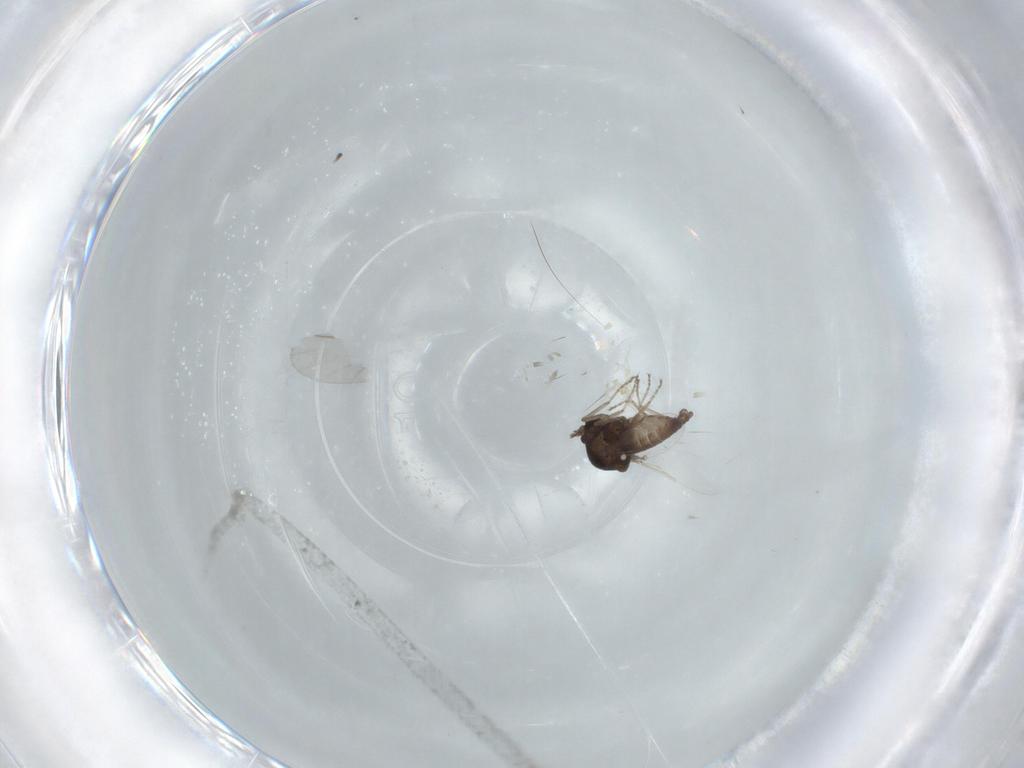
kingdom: Animalia
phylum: Arthropoda
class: Insecta
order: Diptera
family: Ceratopogonidae
